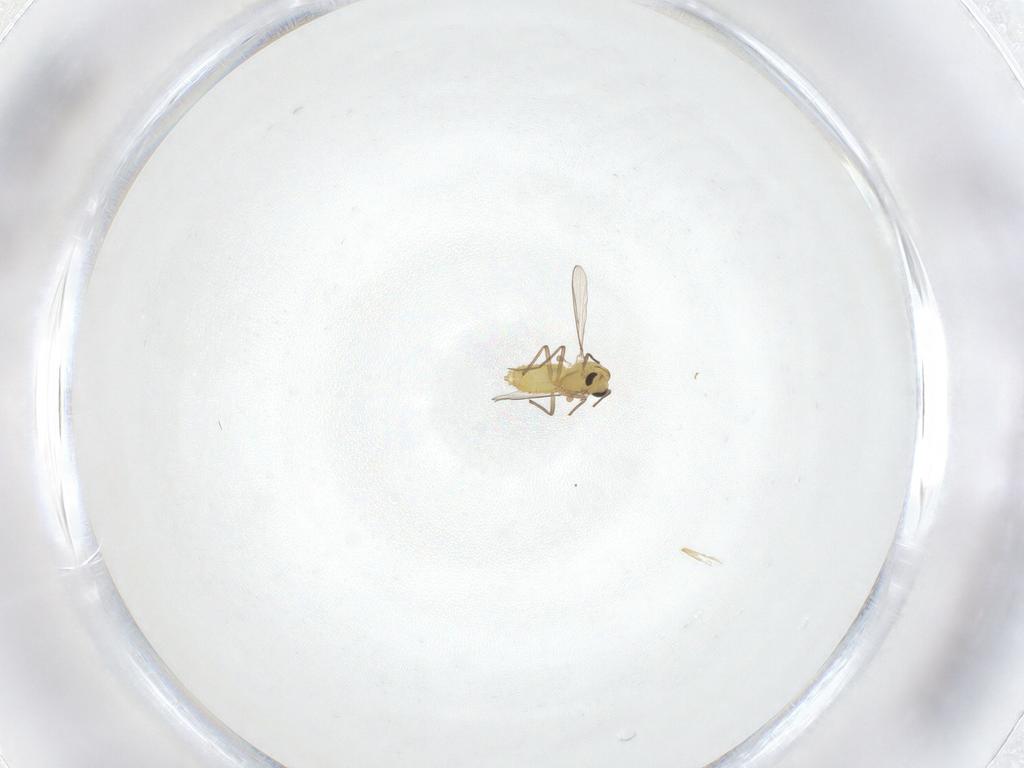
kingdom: Animalia
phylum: Arthropoda
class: Insecta
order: Diptera
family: Chironomidae
